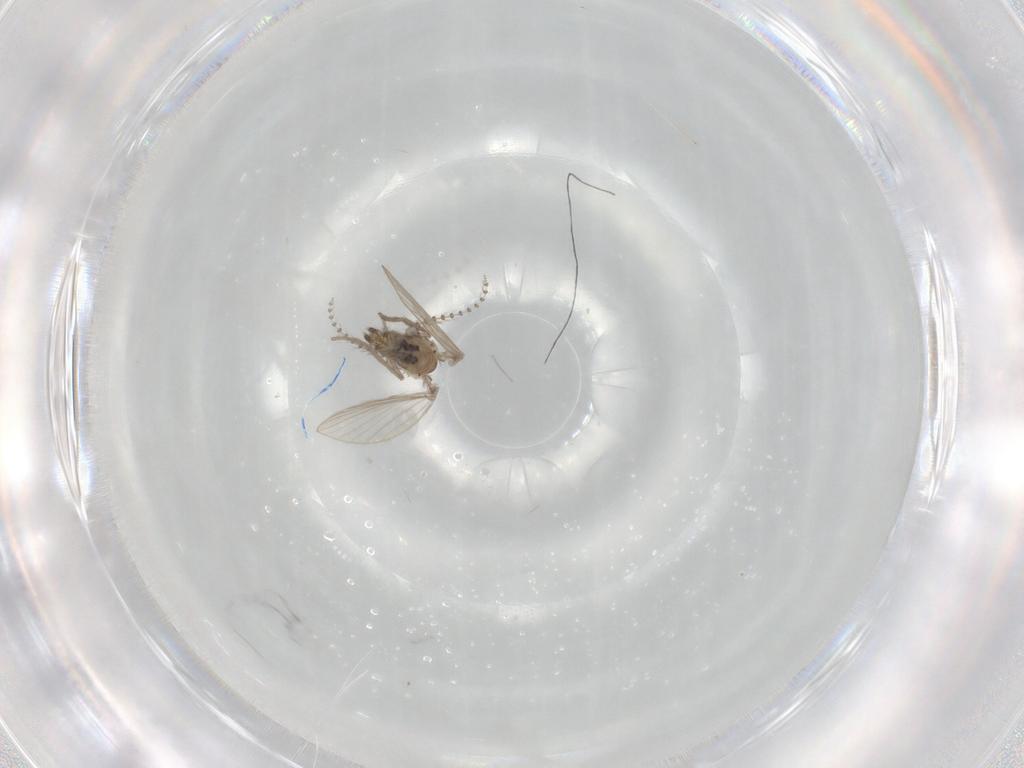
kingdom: Animalia
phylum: Arthropoda
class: Insecta
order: Diptera
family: Psychodidae
